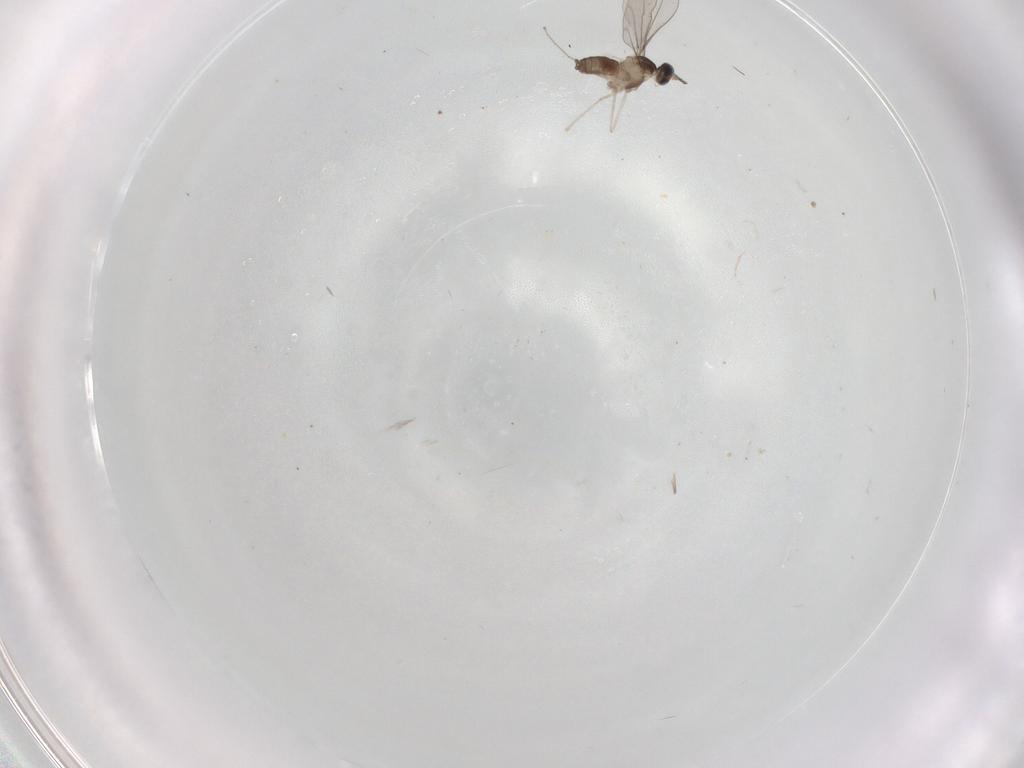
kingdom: Animalia
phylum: Arthropoda
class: Insecta
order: Diptera
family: Cecidomyiidae
